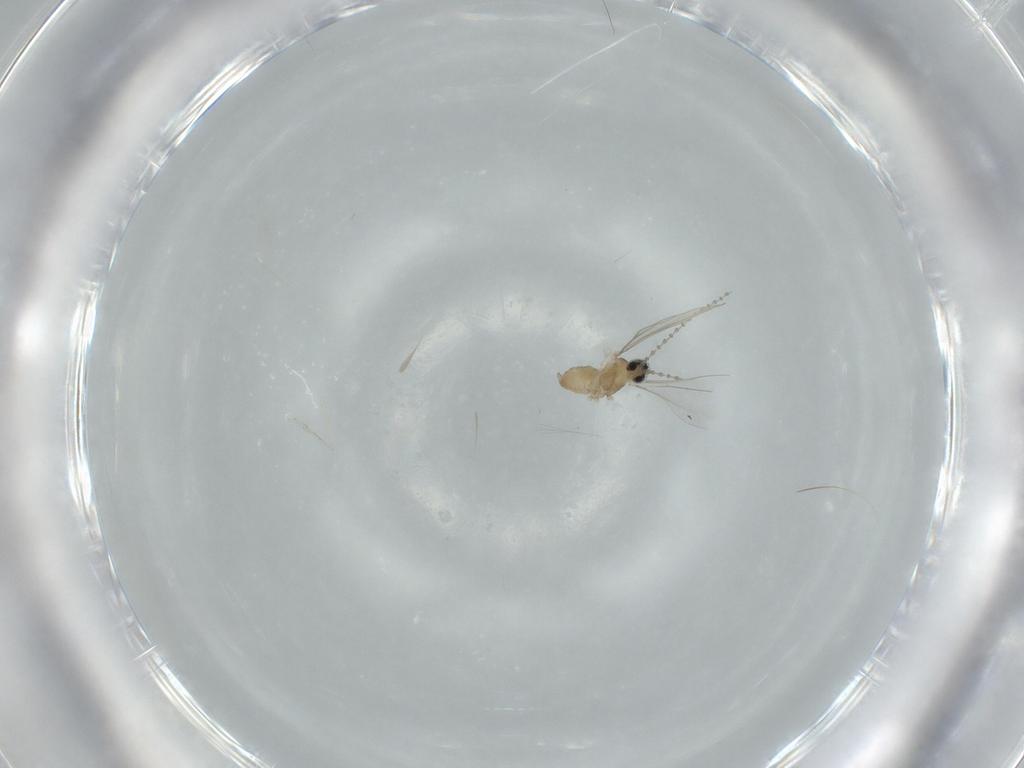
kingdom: Animalia
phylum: Arthropoda
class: Insecta
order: Diptera
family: Cecidomyiidae
